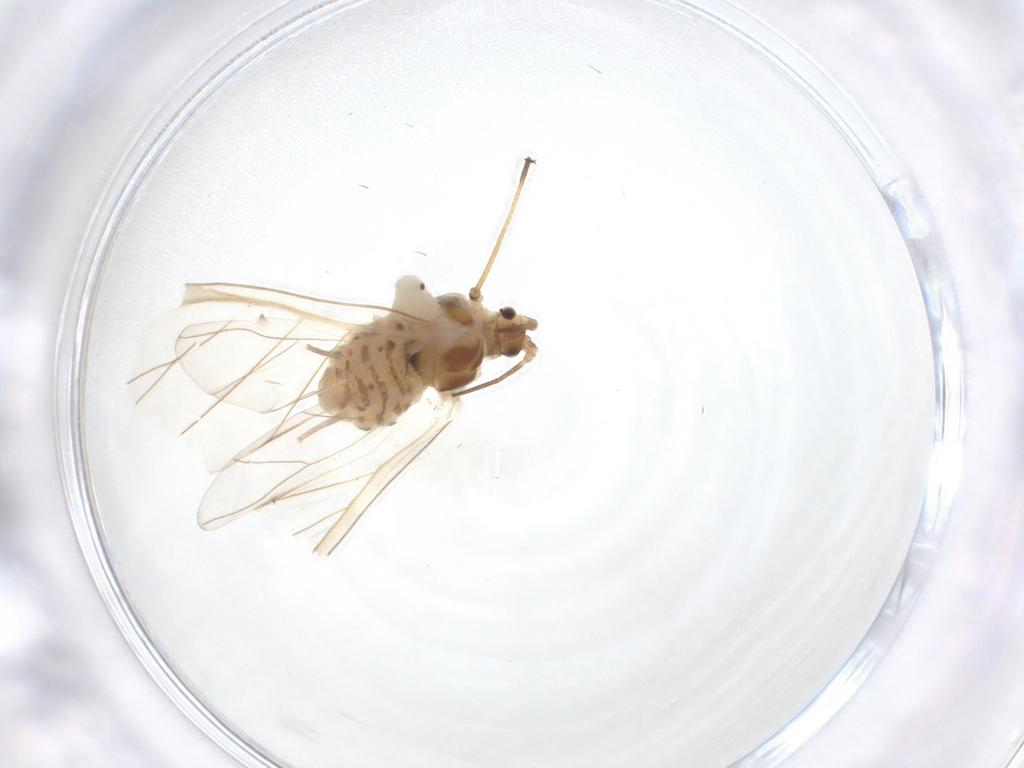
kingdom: Animalia
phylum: Arthropoda
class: Insecta
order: Hemiptera
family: Aphididae
